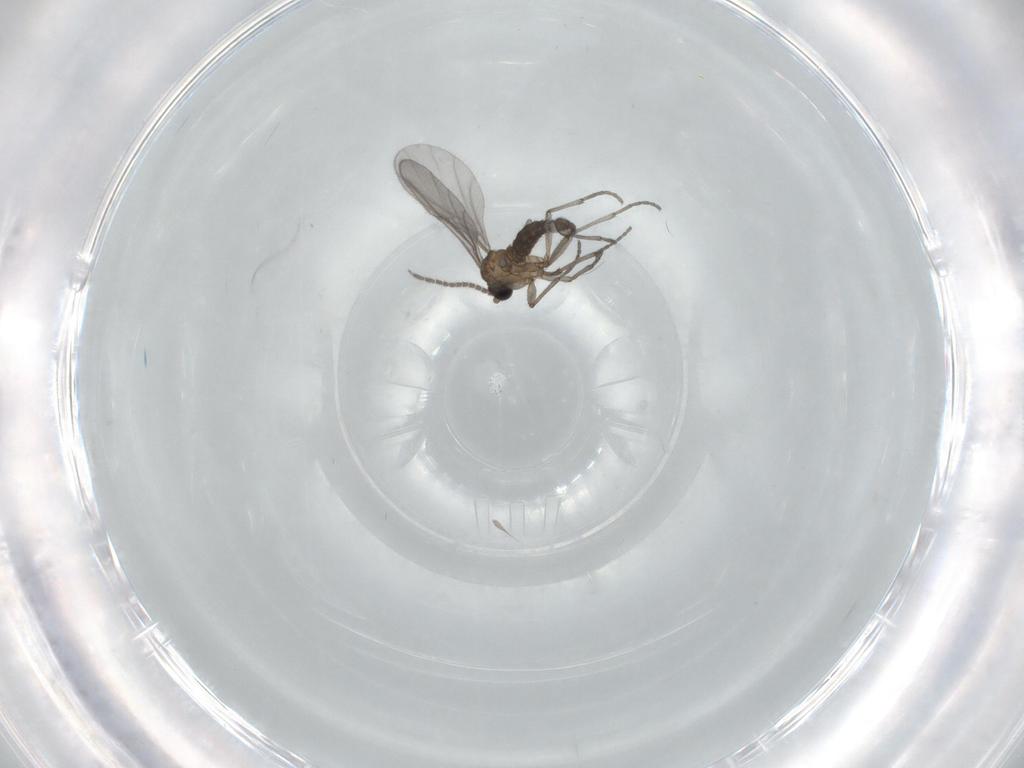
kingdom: Animalia
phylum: Arthropoda
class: Insecta
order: Diptera
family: Sciaridae
